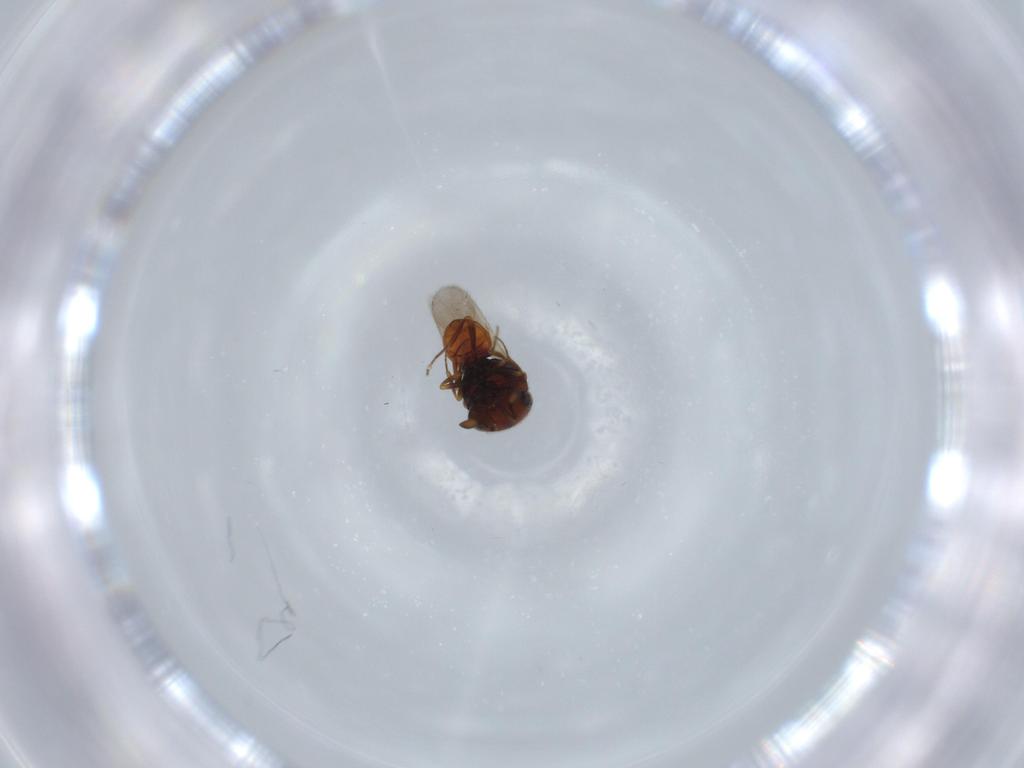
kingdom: Animalia
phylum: Arthropoda
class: Insecta
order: Hymenoptera
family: Scelionidae
